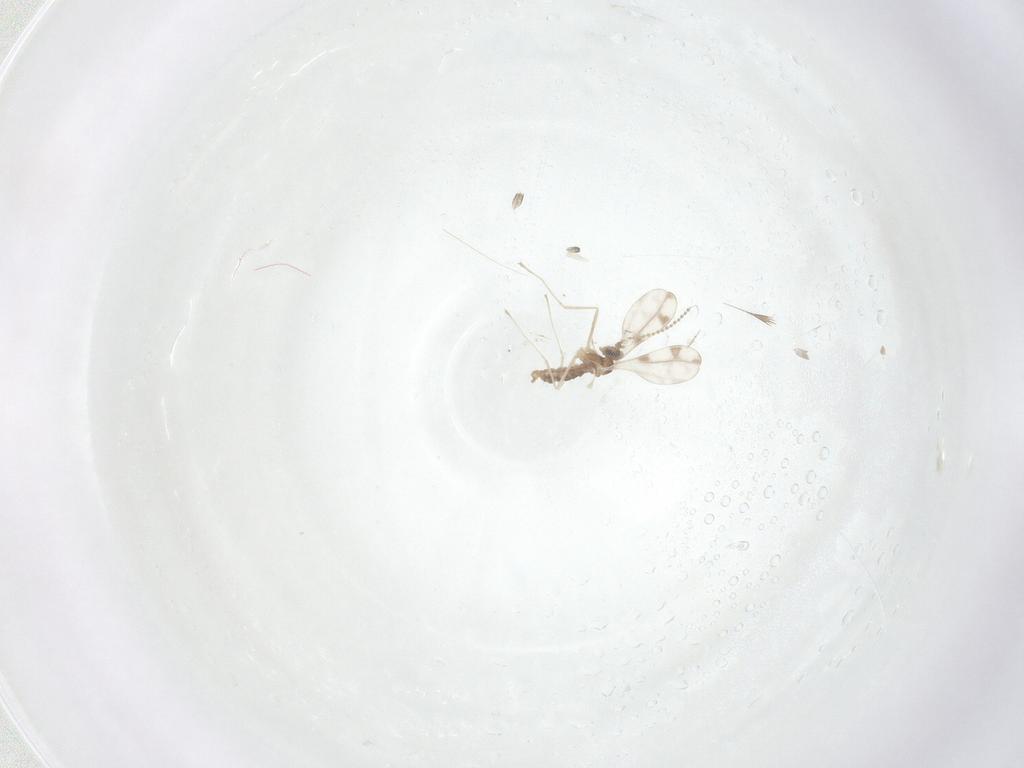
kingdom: Animalia
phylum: Arthropoda
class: Insecta
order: Diptera
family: Cecidomyiidae
